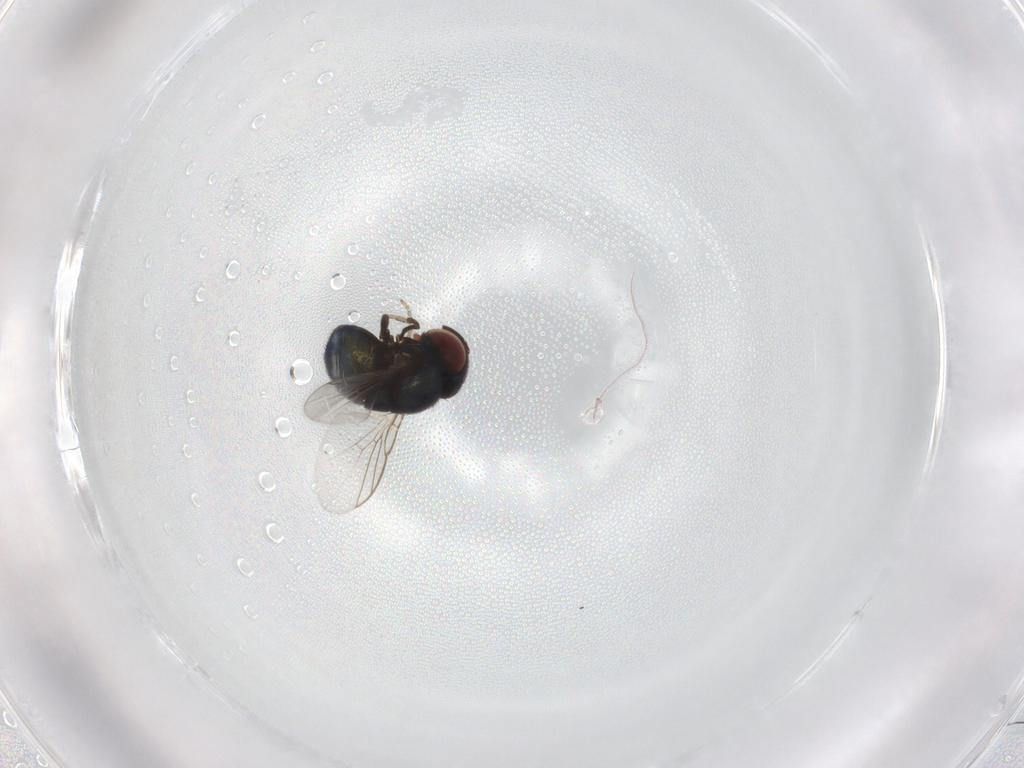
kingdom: Animalia
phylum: Arthropoda
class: Insecta
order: Diptera
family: Cryptochetidae
